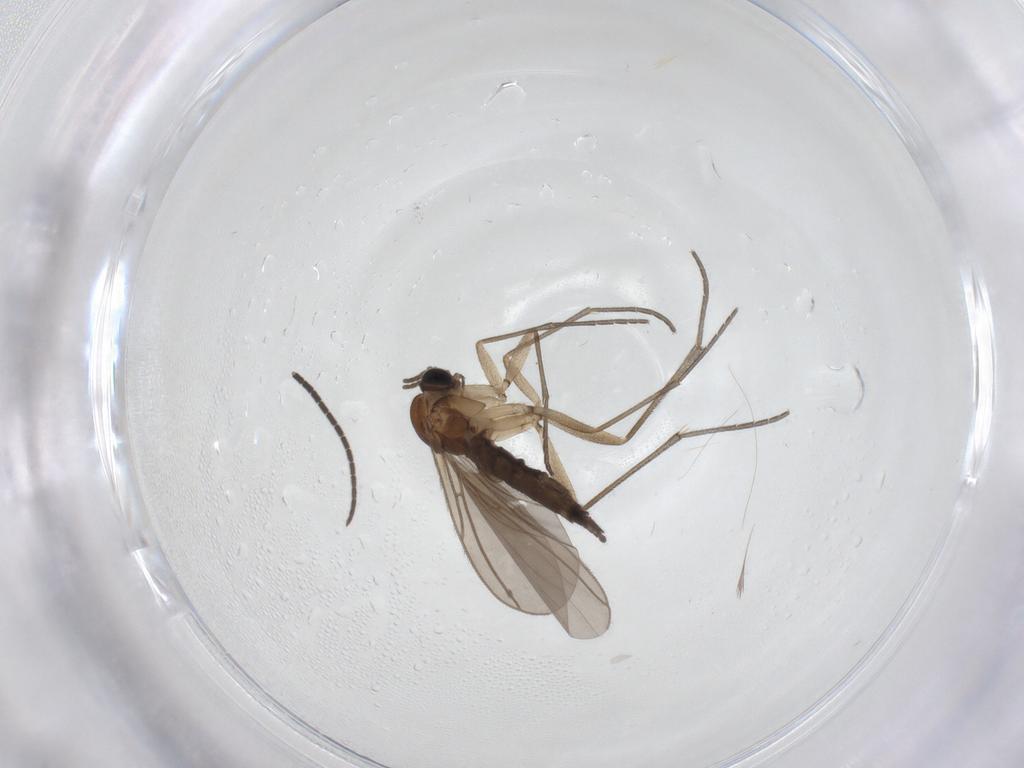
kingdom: Animalia
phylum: Arthropoda
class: Insecta
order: Diptera
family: Sciaridae
